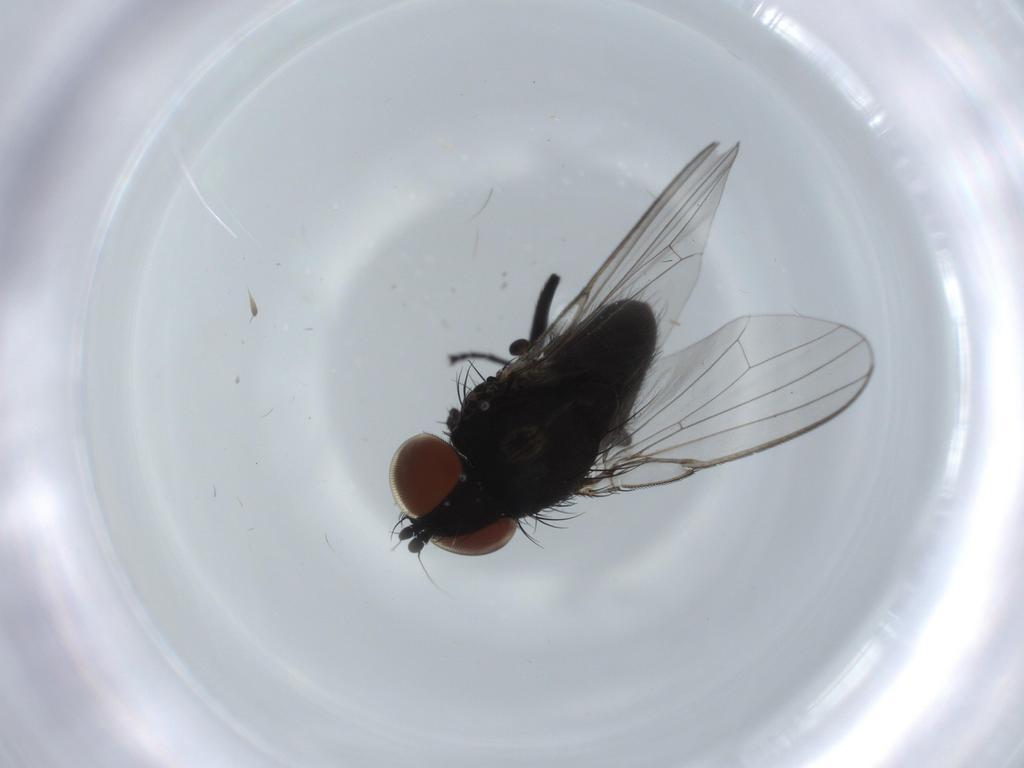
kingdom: Animalia
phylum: Arthropoda
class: Insecta
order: Diptera
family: Milichiidae
